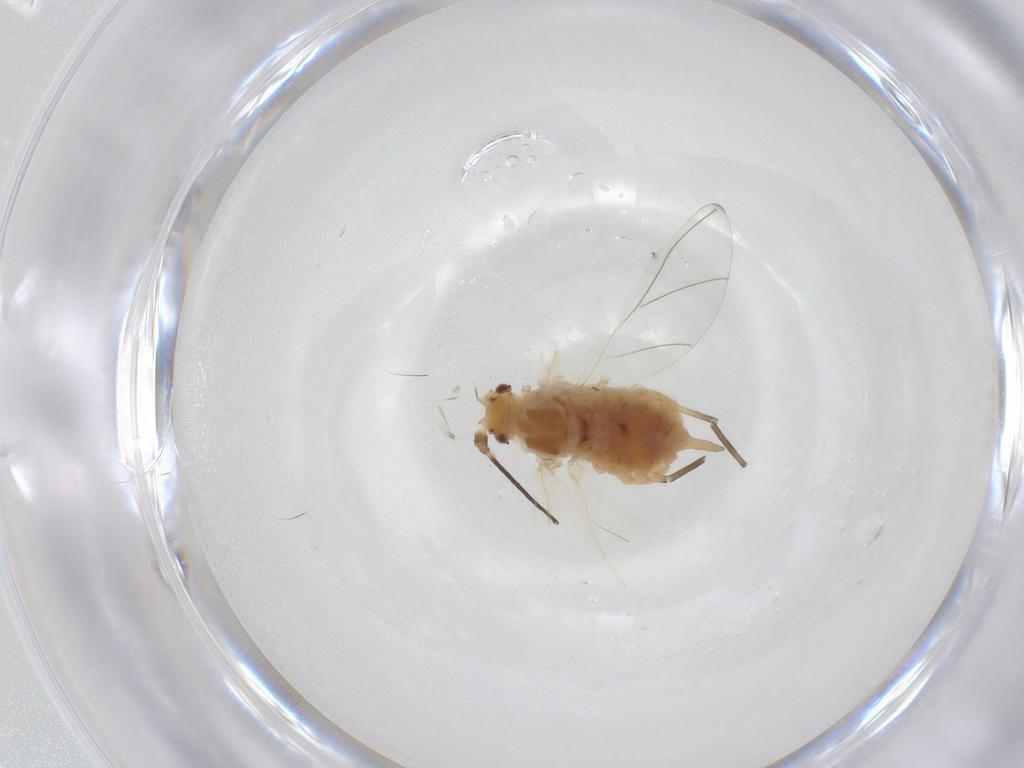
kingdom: Animalia
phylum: Arthropoda
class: Insecta
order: Hemiptera
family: Aphididae
